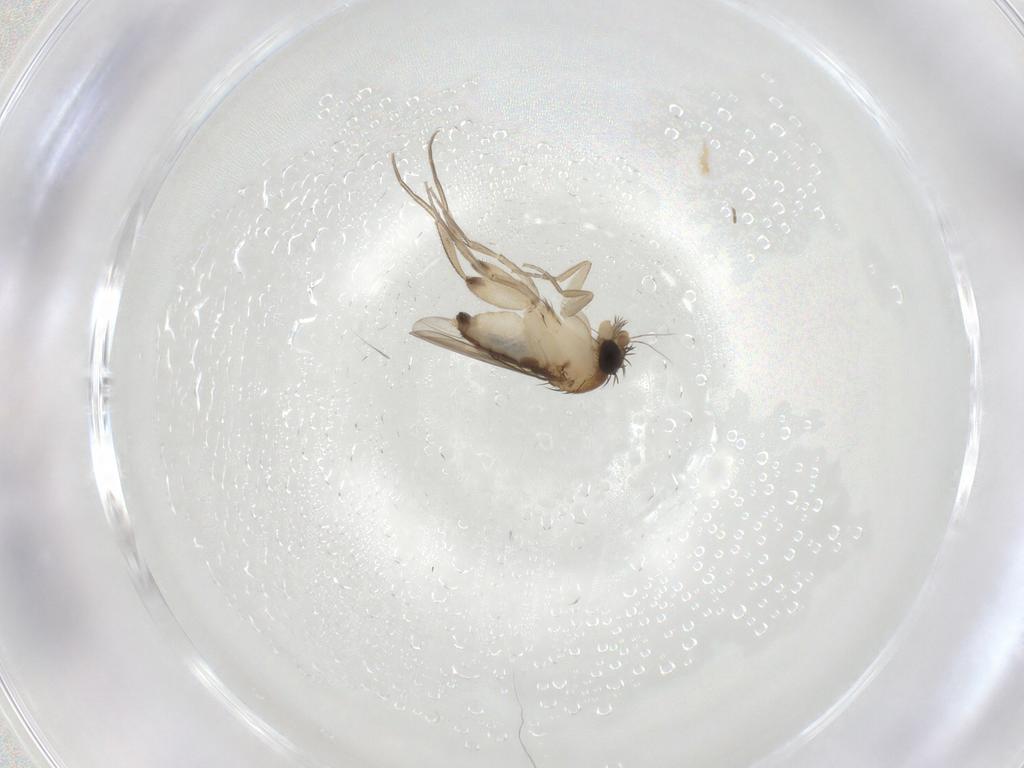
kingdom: Animalia
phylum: Arthropoda
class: Insecta
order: Diptera
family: Phoridae
